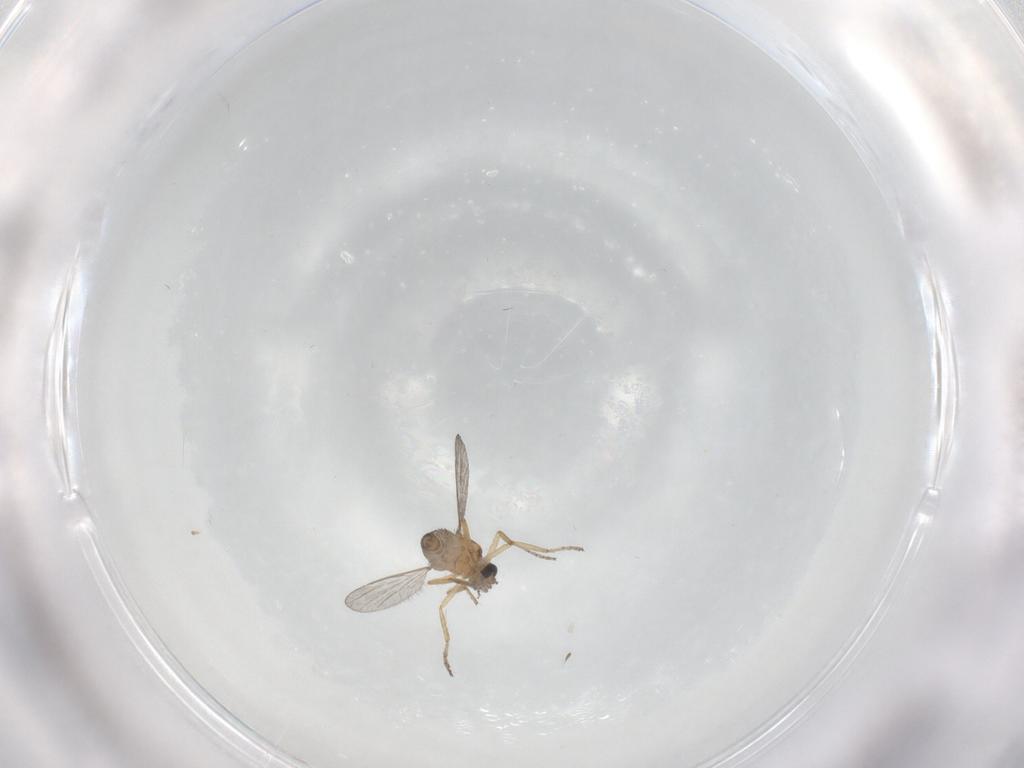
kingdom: Animalia
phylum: Arthropoda
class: Insecta
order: Diptera
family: Ceratopogonidae
